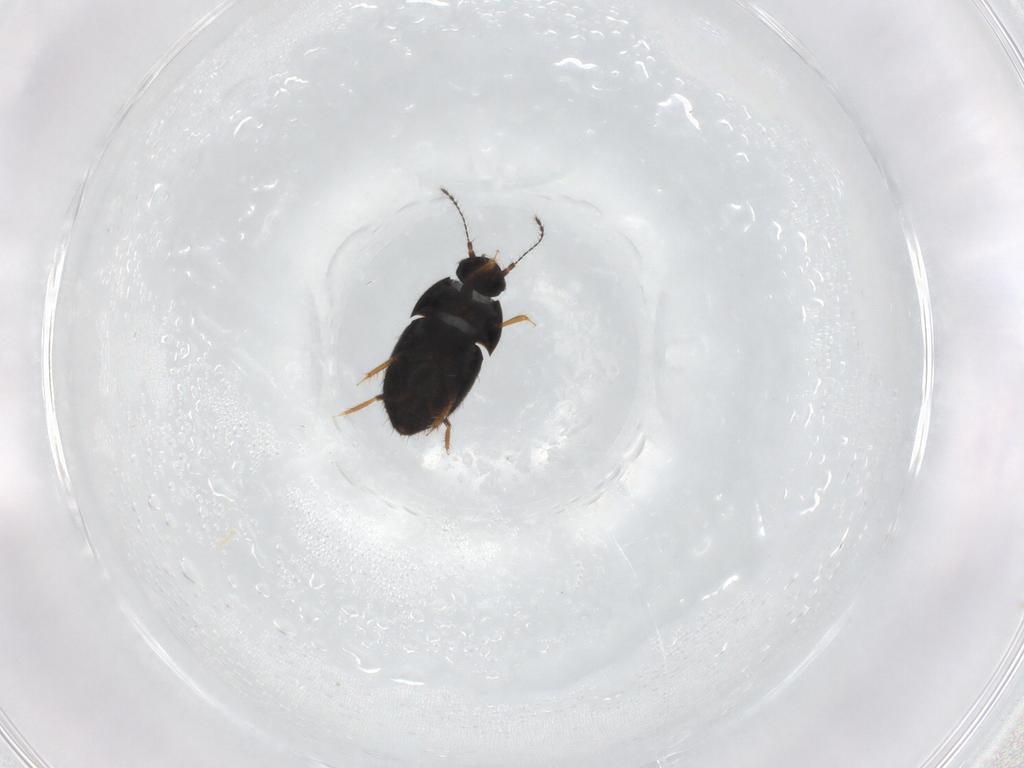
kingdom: Animalia
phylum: Arthropoda
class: Insecta
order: Coleoptera
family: Ptiliidae
